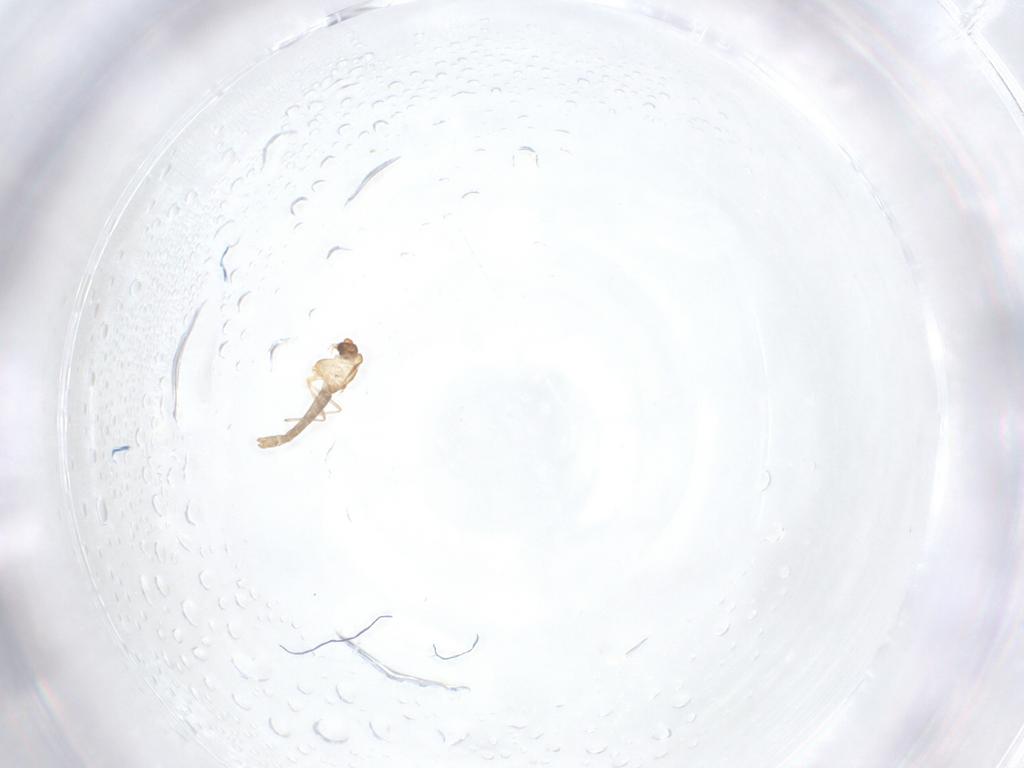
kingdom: Animalia
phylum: Arthropoda
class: Insecta
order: Diptera
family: Chironomidae
